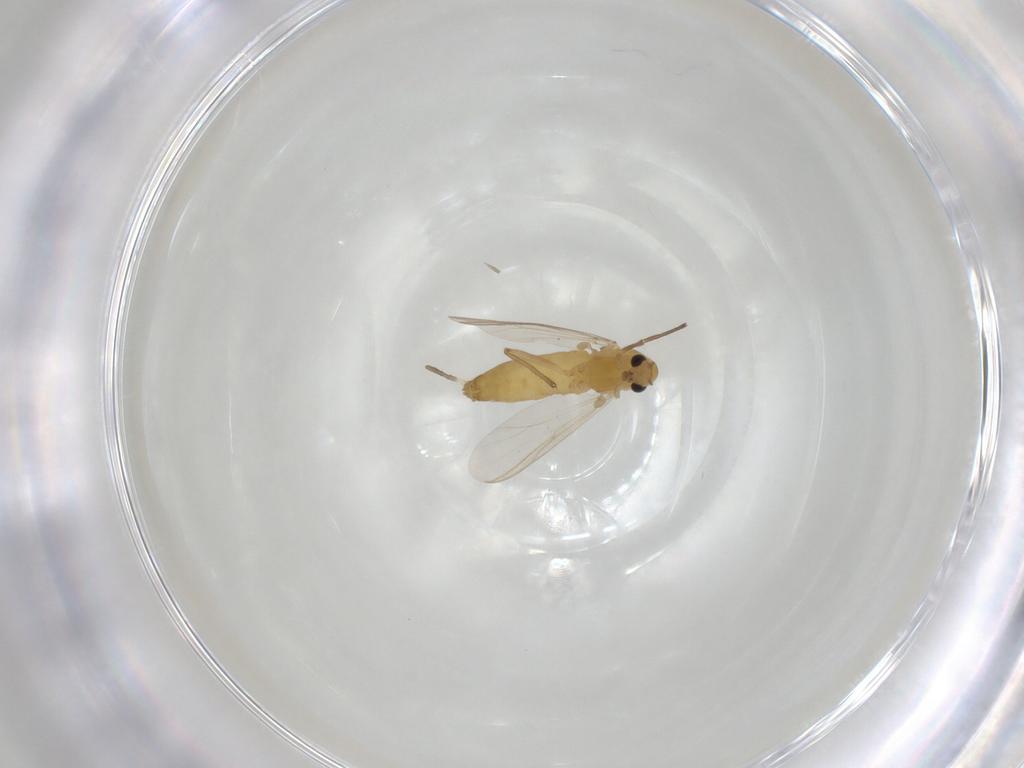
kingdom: Animalia
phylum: Arthropoda
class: Insecta
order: Diptera
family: Chironomidae
